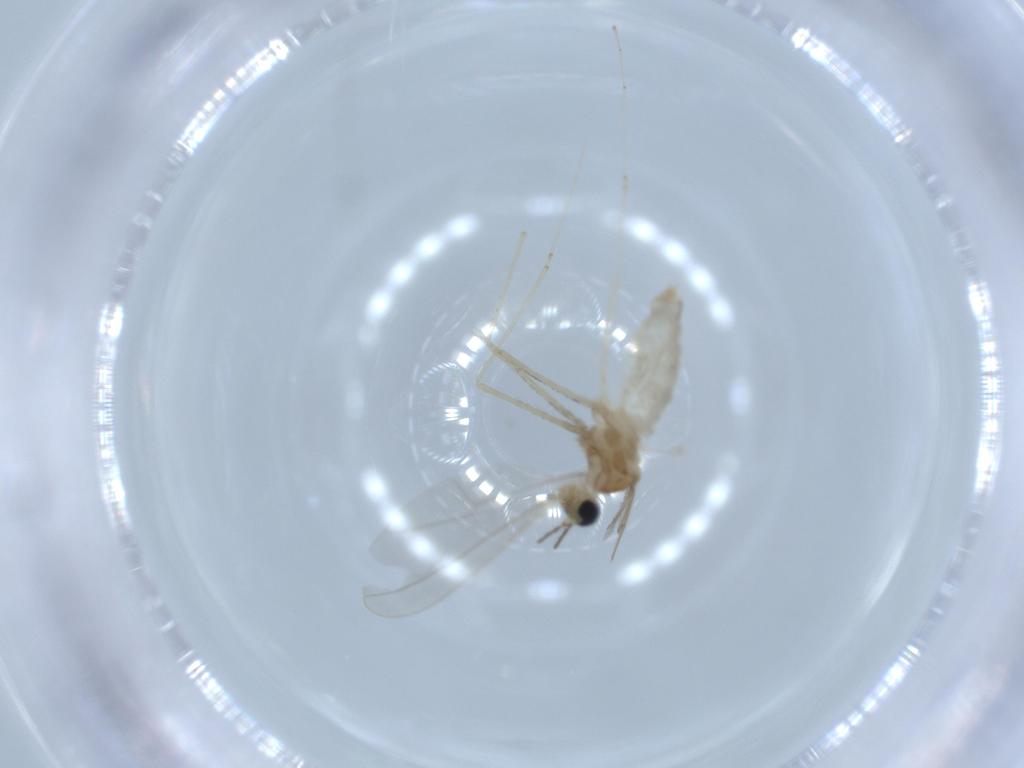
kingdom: Animalia
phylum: Arthropoda
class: Insecta
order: Diptera
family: Cecidomyiidae
